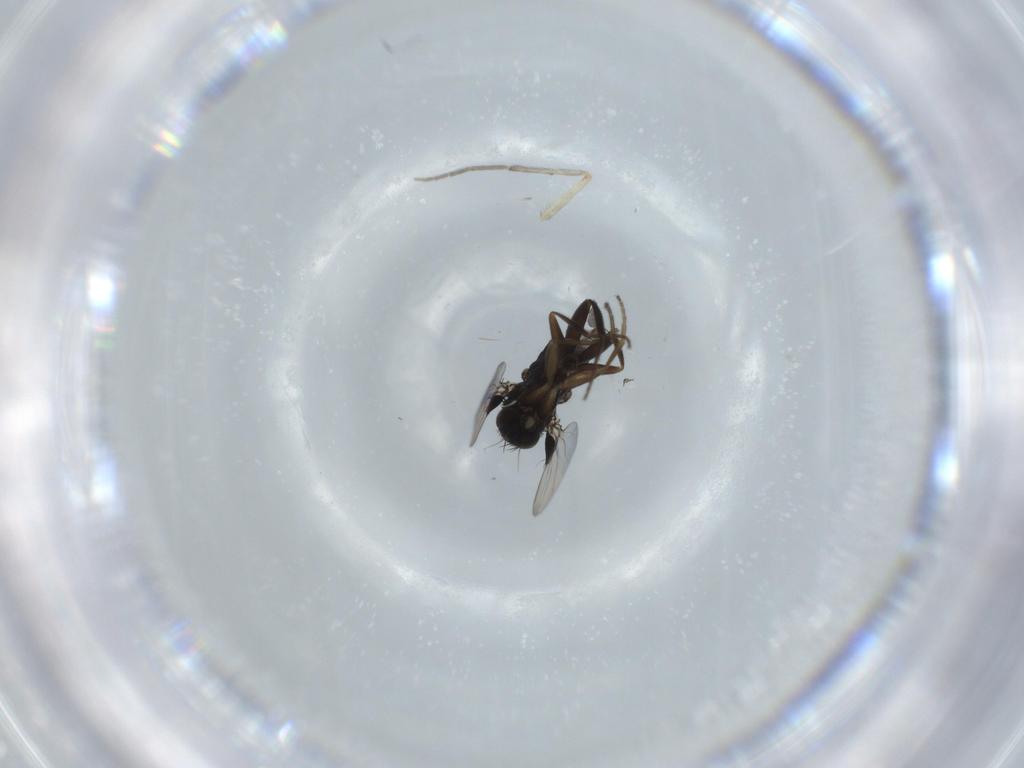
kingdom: Animalia
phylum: Arthropoda
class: Insecta
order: Diptera
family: Chironomidae
